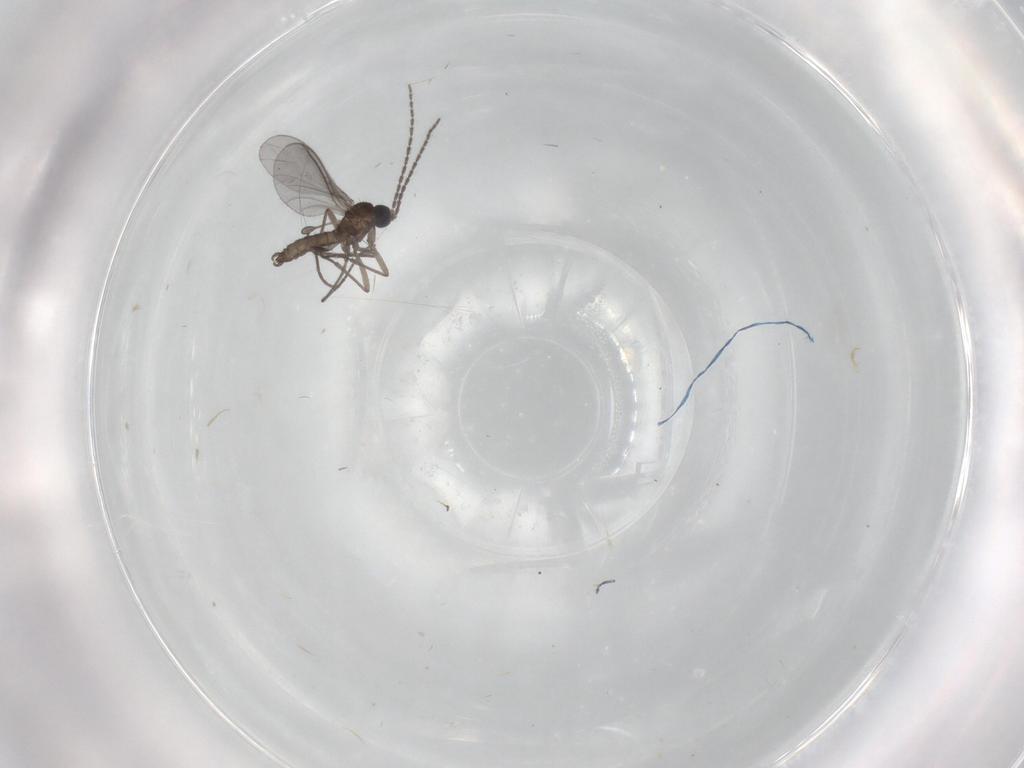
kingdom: Animalia
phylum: Arthropoda
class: Insecta
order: Diptera
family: Sciaridae
